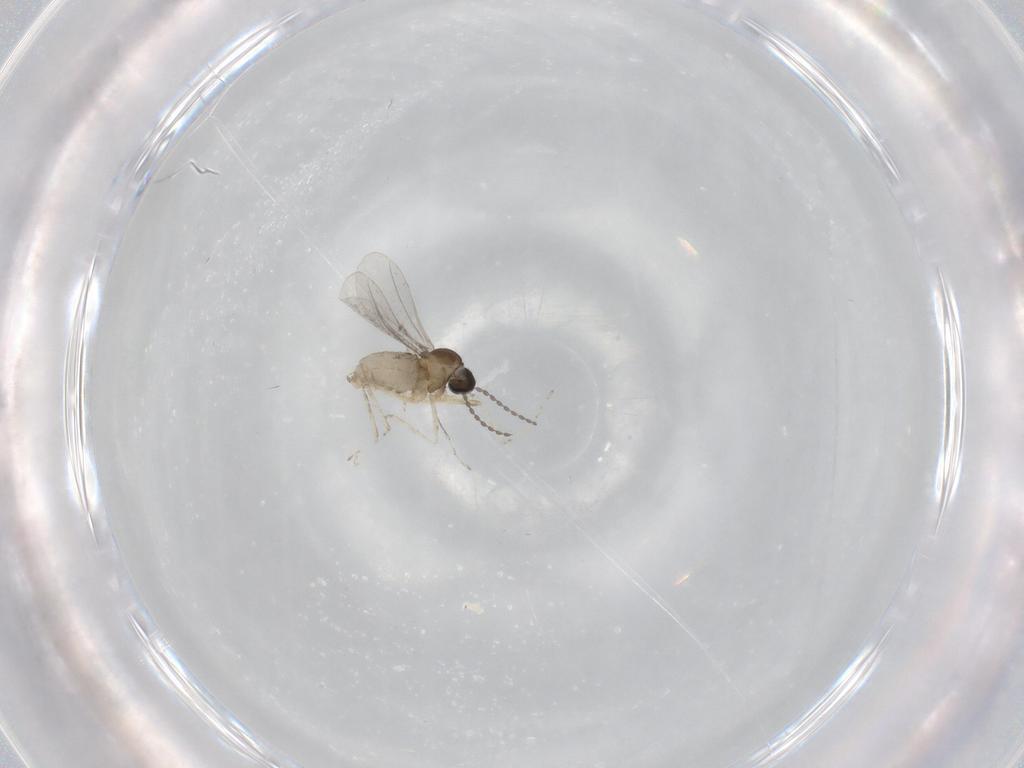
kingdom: Animalia
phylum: Arthropoda
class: Insecta
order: Diptera
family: Cecidomyiidae
